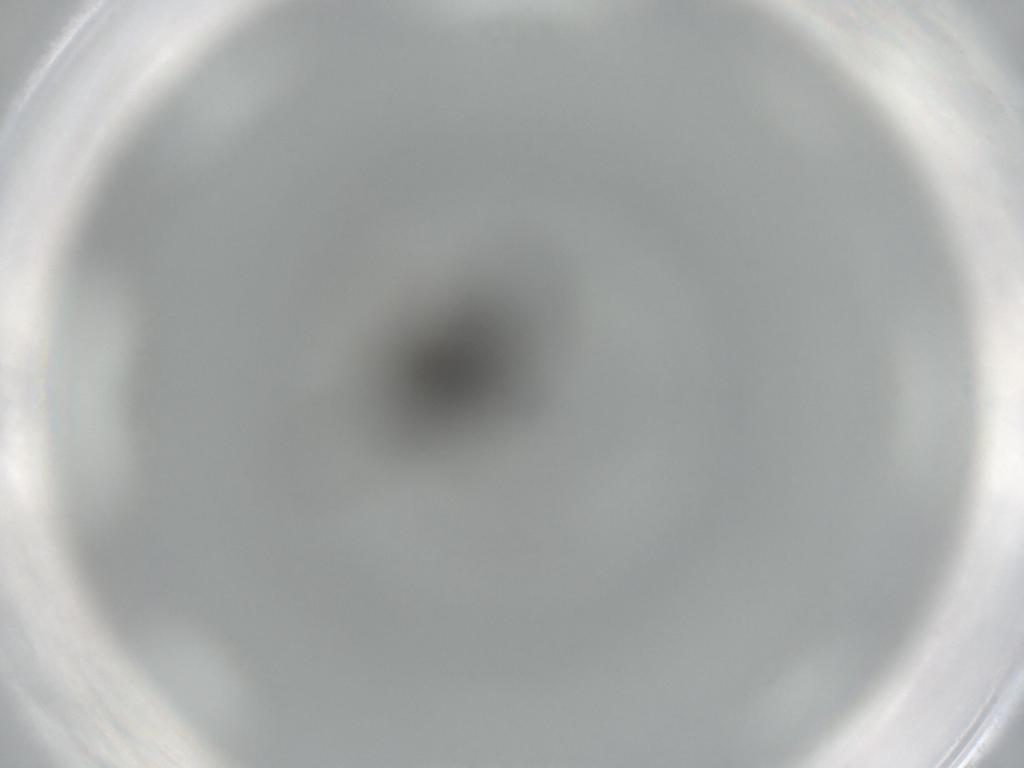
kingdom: Animalia
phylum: Arthropoda
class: Insecta
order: Diptera
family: Sciaridae
